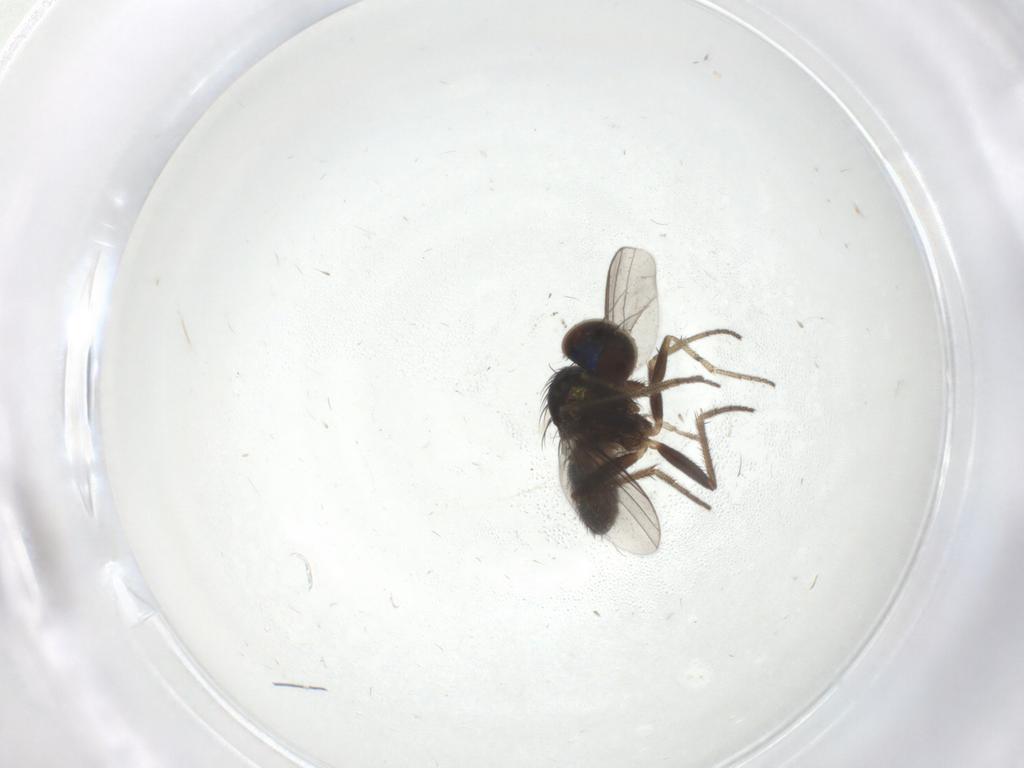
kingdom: Animalia
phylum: Arthropoda
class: Insecta
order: Diptera
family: Dolichopodidae
